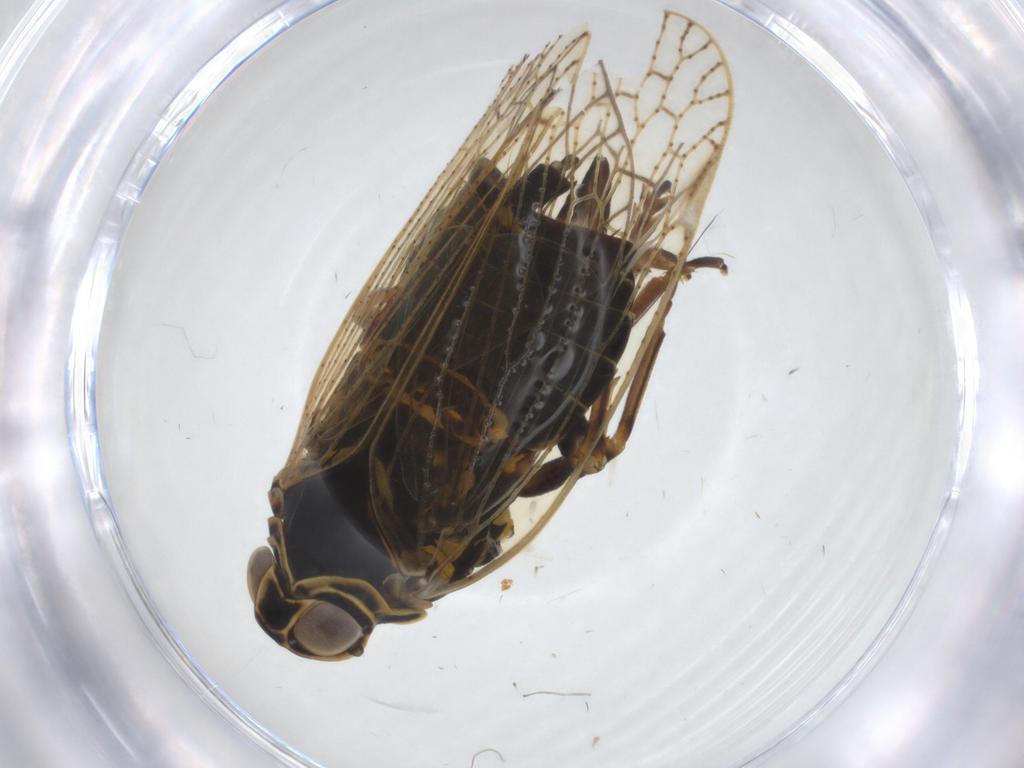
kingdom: Animalia
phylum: Arthropoda
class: Insecta
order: Hemiptera
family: Cixiidae
